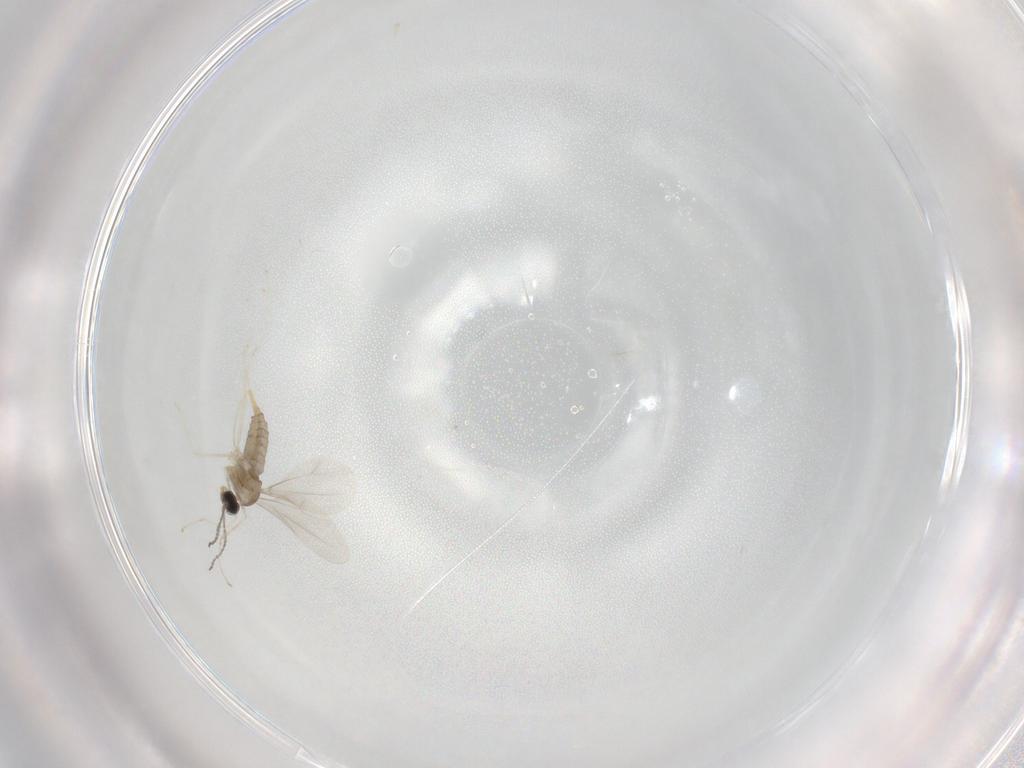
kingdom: Animalia
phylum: Arthropoda
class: Insecta
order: Diptera
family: Cecidomyiidae
